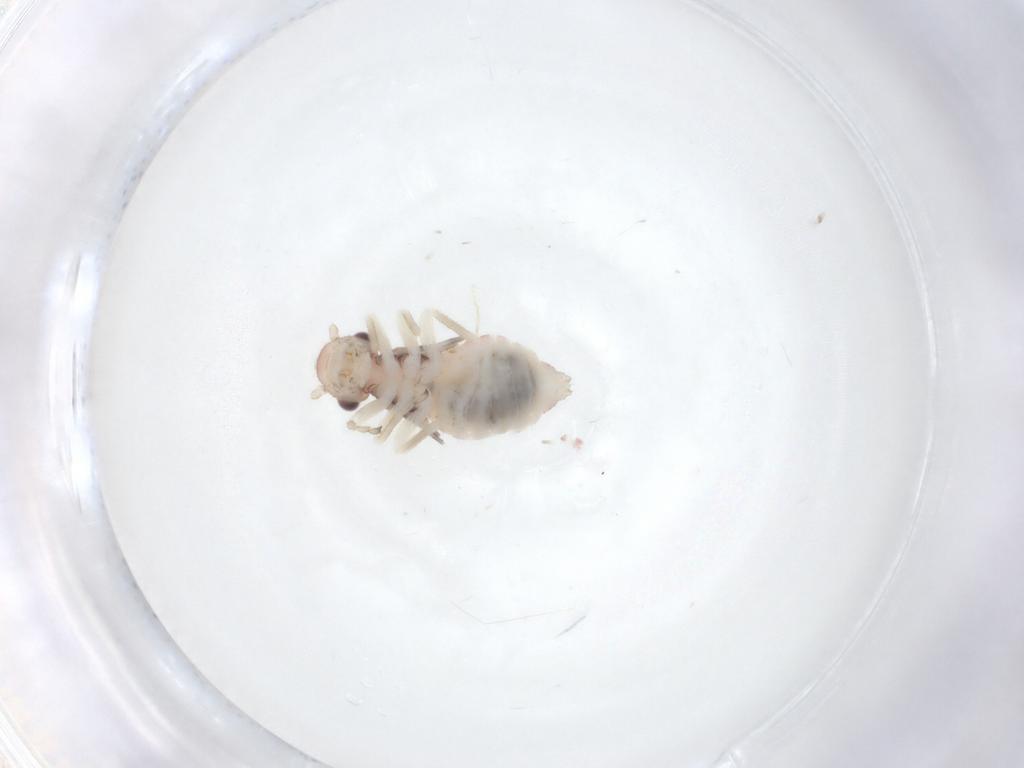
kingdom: Animalia
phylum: Arthropoda
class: Insecta
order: Psocodea
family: Amphipsocidae
